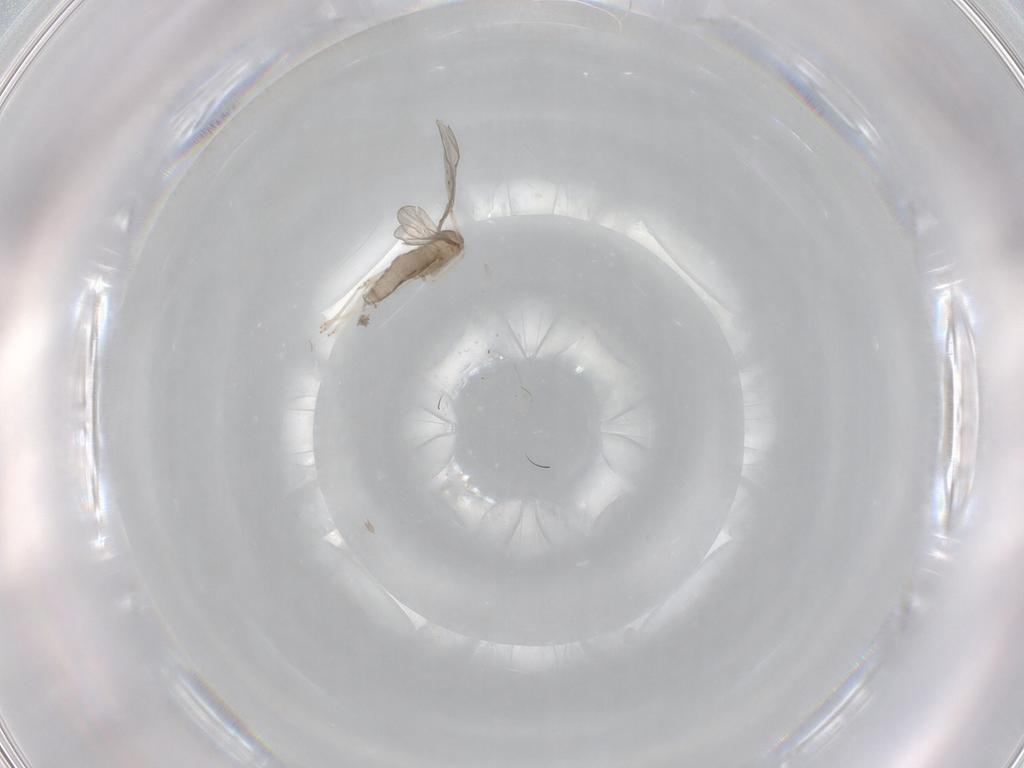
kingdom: Animalia
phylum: Arthropoda
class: Insecta
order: Diptera
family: Cecidomyiidae
